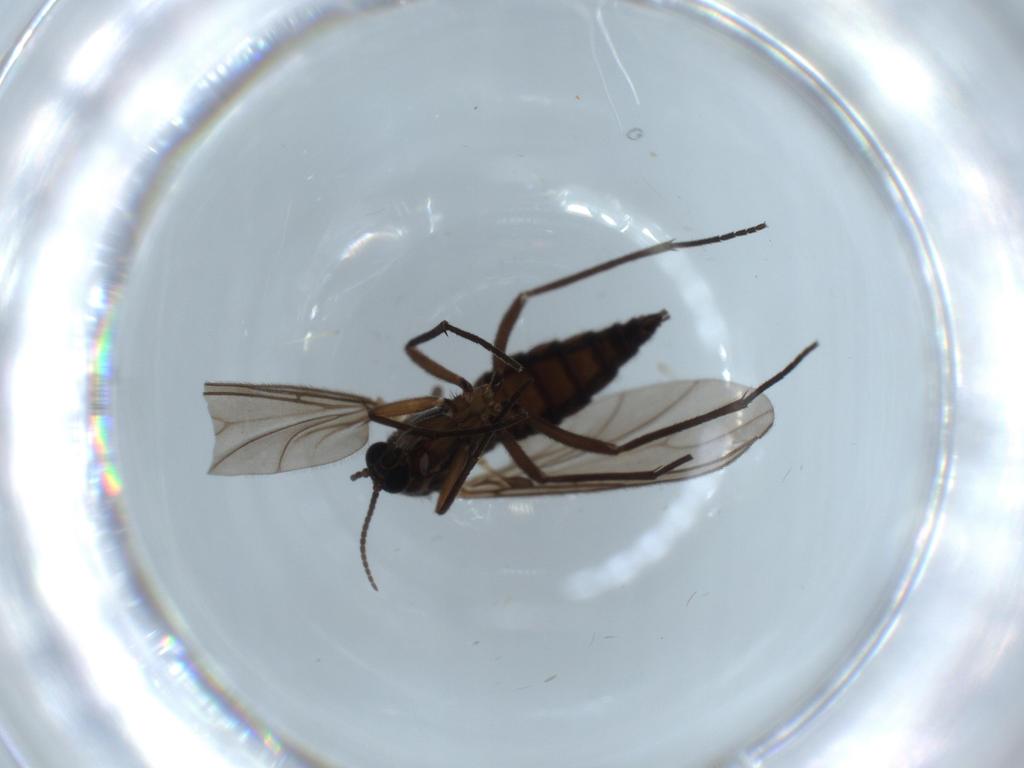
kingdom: Animalia
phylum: Arthropoda
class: Insecta
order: Diptera
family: Sciaridae
